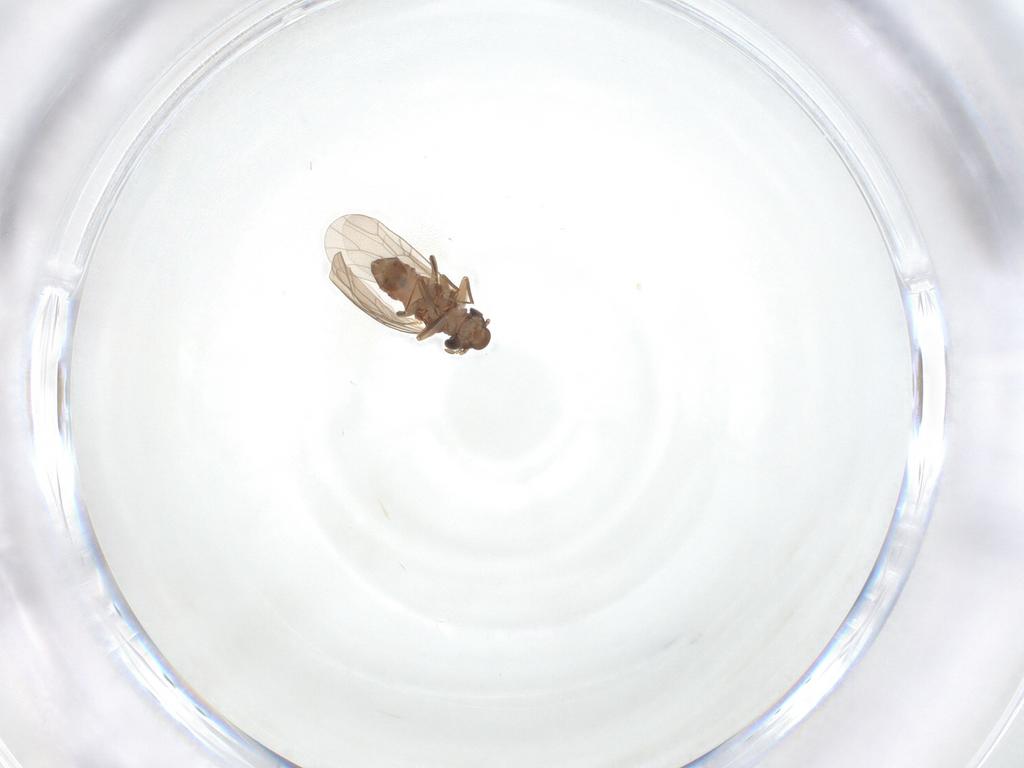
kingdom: Animalia
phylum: Arthropoda
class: Insecta
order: Psocodea
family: Lepidopsocidae
